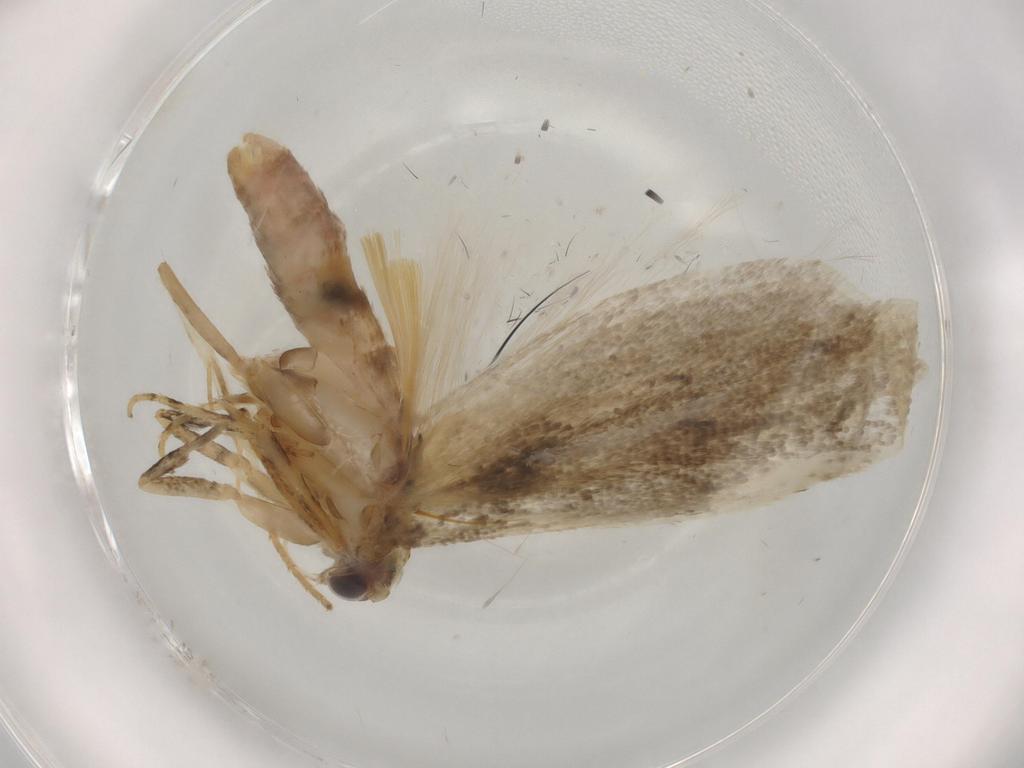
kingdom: Animalia
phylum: Arthropoda
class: Insecta
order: Lepidoptera
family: Gelechiidae
